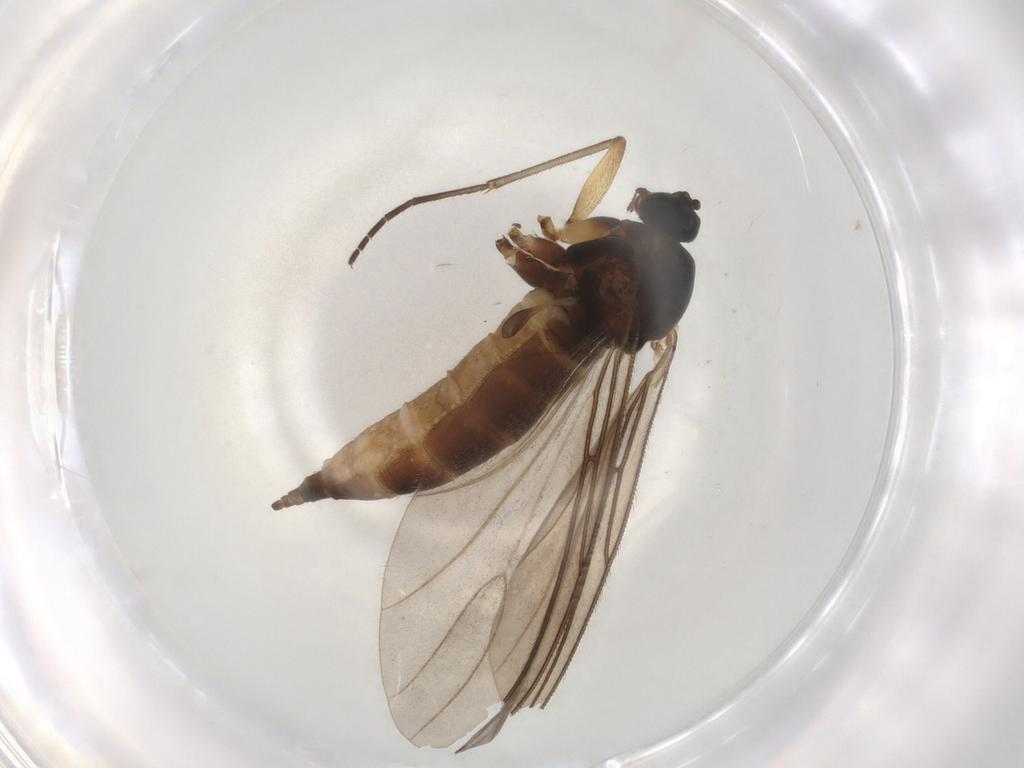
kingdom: Animalia
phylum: Arthropoda
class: Insecta
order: Diptera
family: Sciaridae
